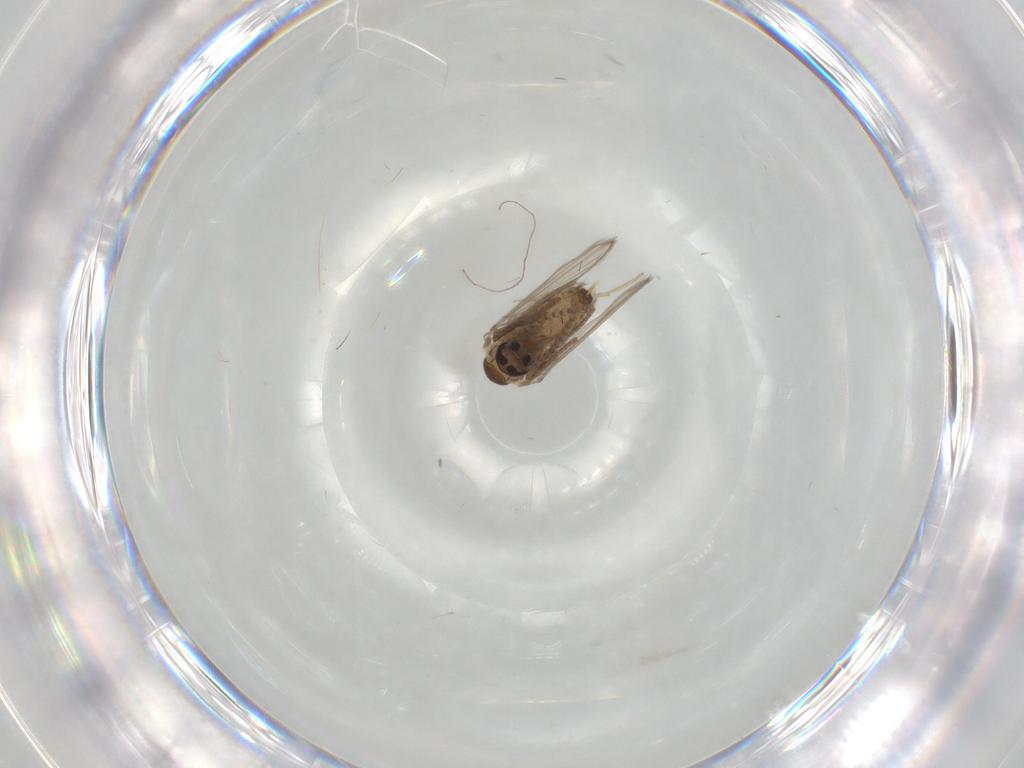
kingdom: Animalia
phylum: Arthropoda
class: Insecta
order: Diptera
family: Psychodidae
